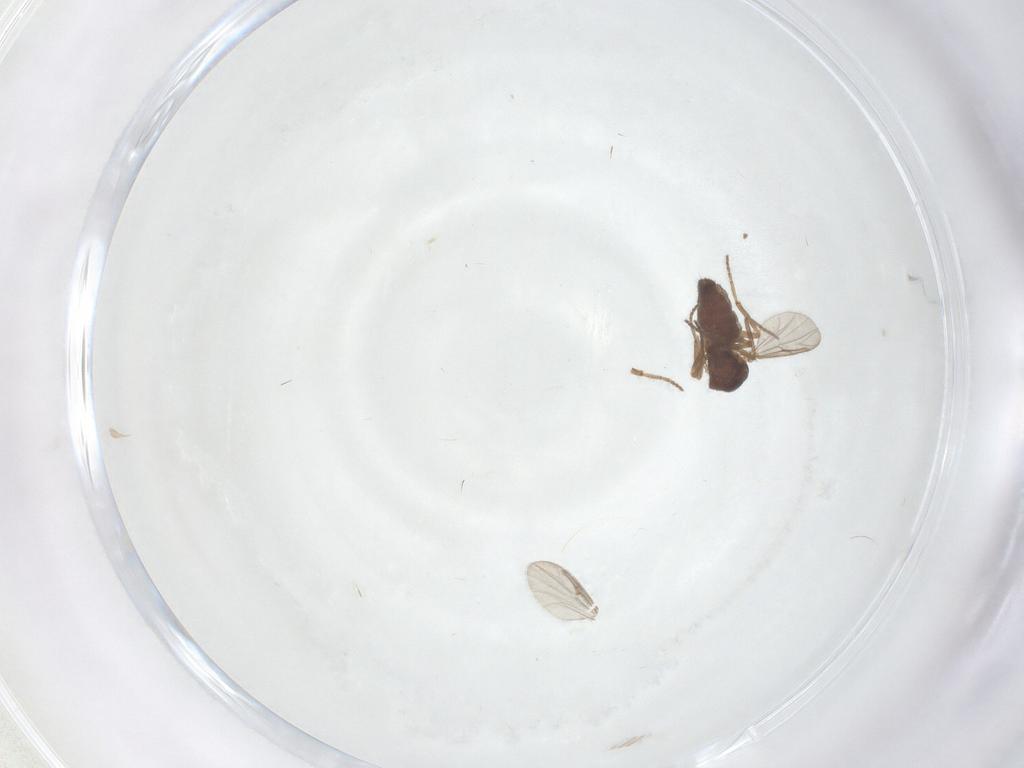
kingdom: Animalia
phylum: Arthropoda
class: Insecta
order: Diptera
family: Ceratopogonidae
